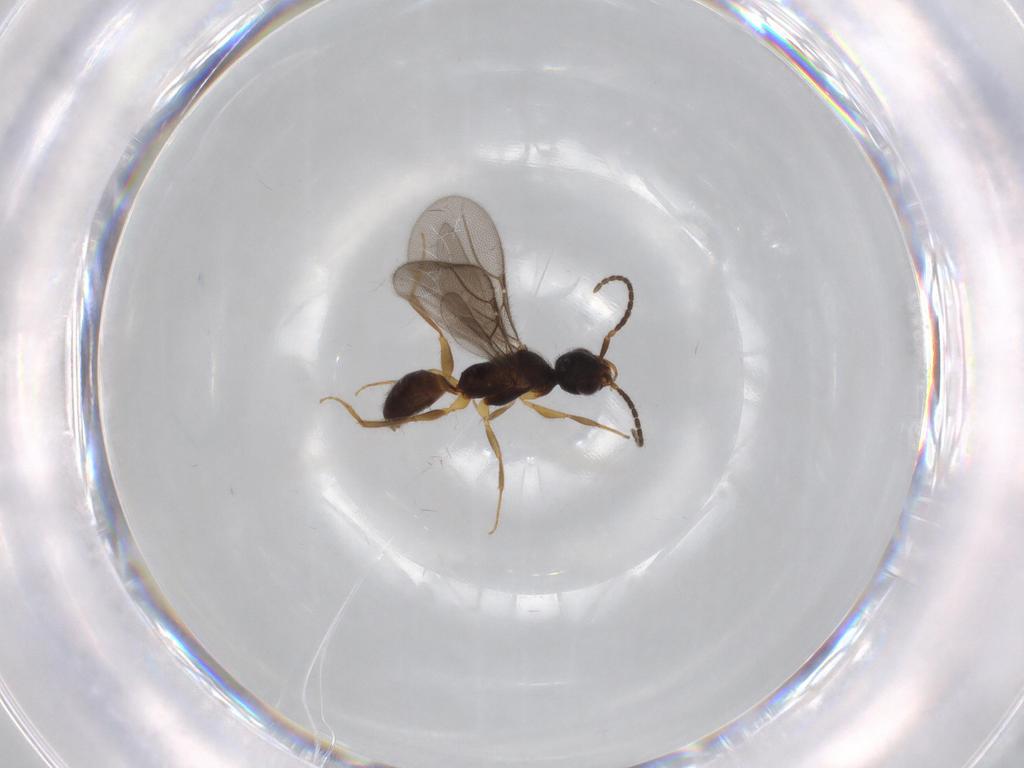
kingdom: Animalia
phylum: Arthropoda
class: Insecta
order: Hymenoptera
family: Bethylidae
